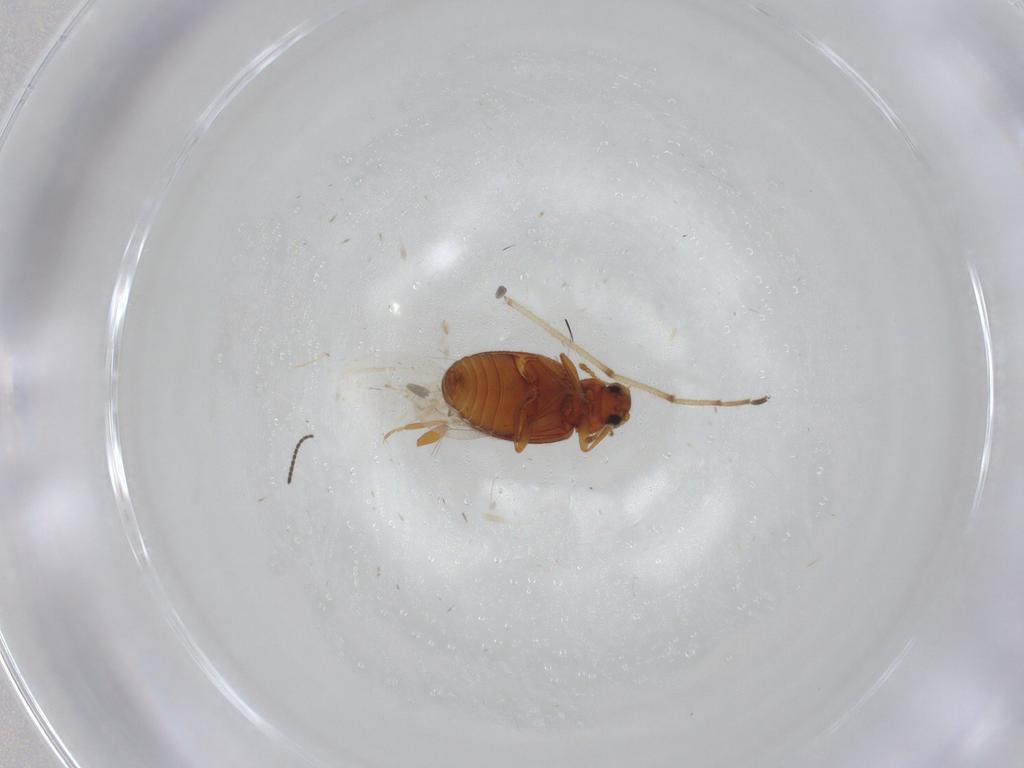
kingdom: Animalia
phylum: Arthropoda
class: Insecta
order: Coleoptera
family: Latridiidae
